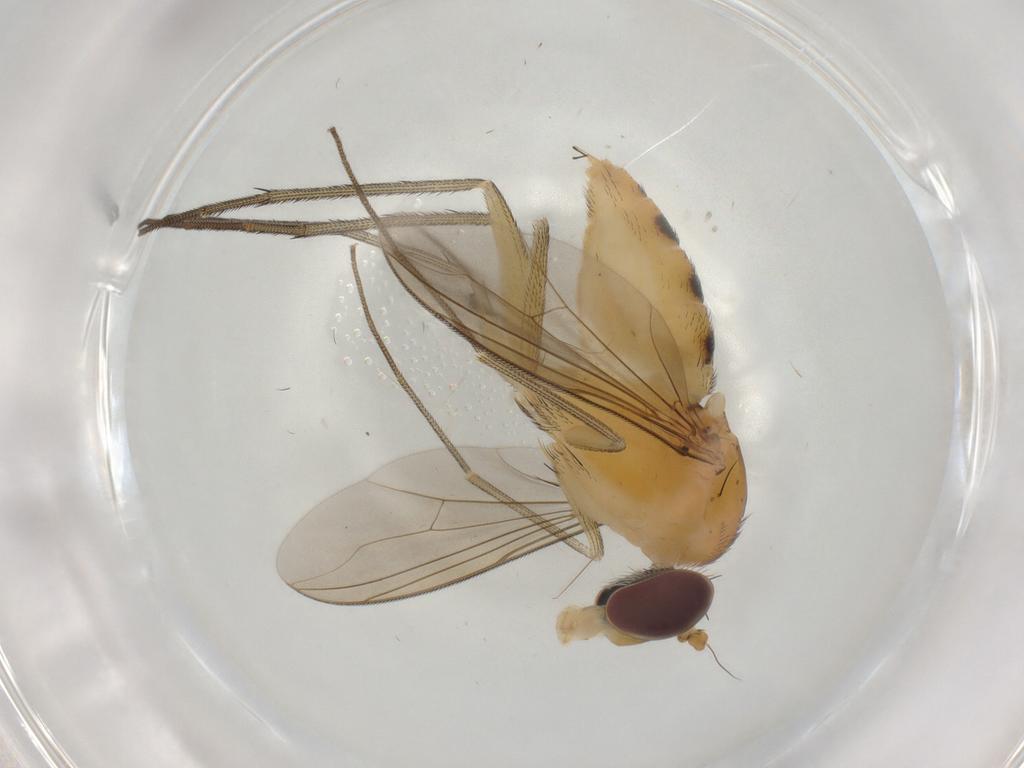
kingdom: Animalia
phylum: Arthropoda
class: Insecta
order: Diptera
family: Dolichopodidae
